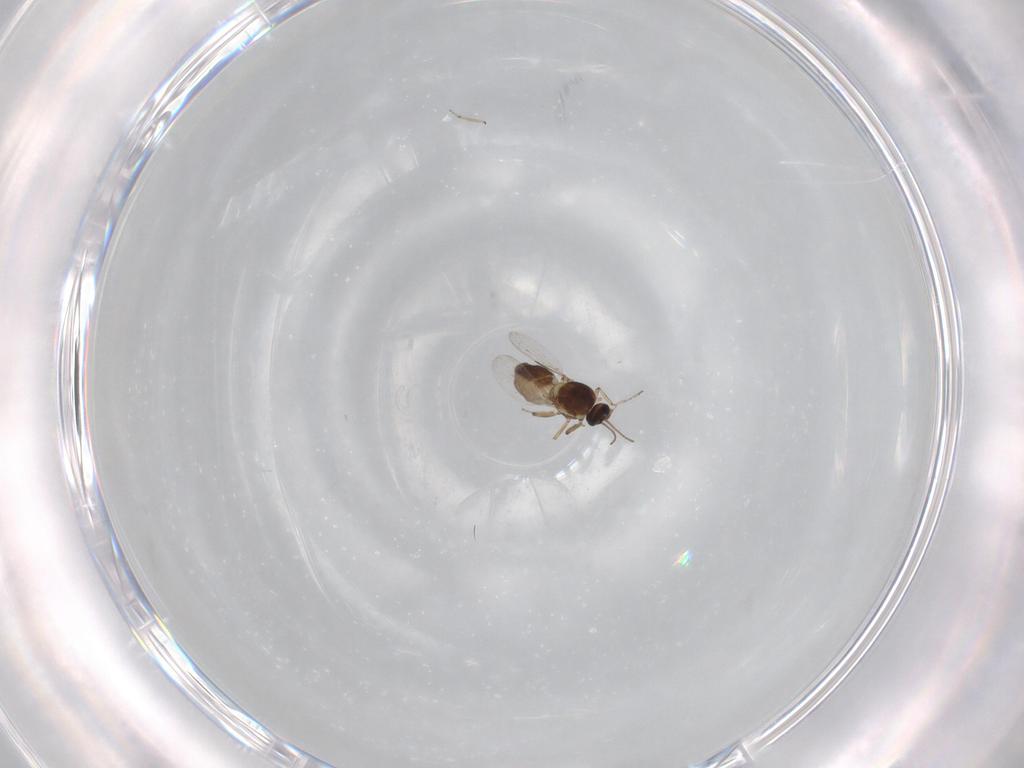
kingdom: Animalia
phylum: Arthropoda
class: Insecta
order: Diptera
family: Ceratopogonidae
